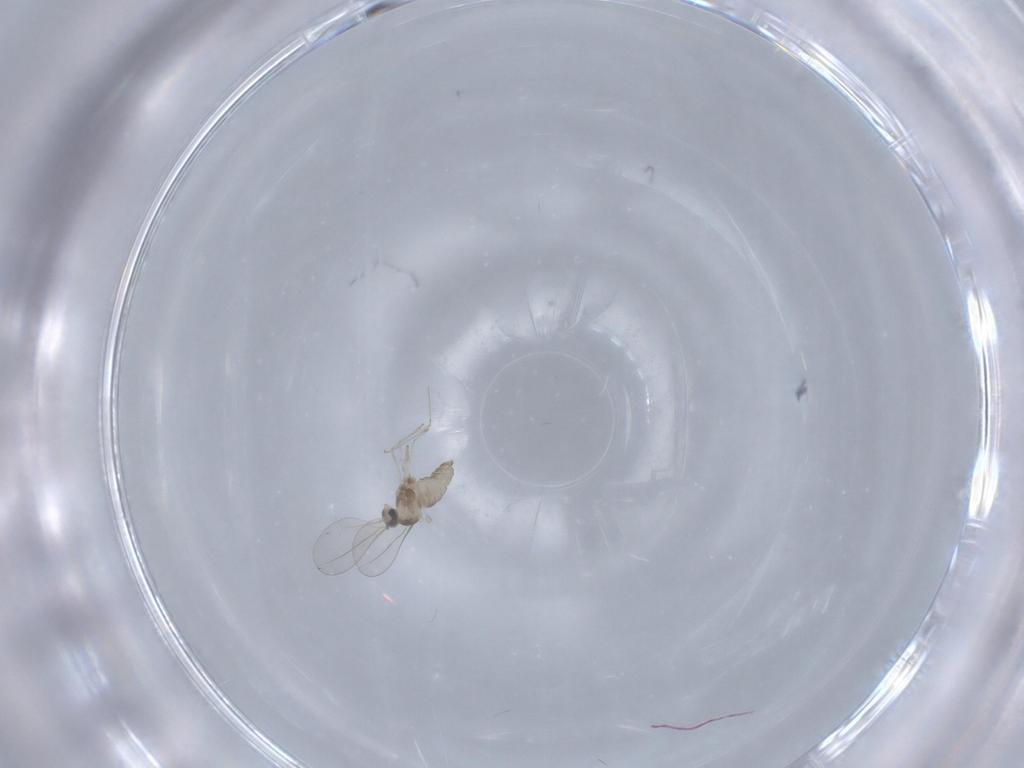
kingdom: Animalia
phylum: Arthropoda
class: Insecta
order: Diptera
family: Cecidomyiidae
